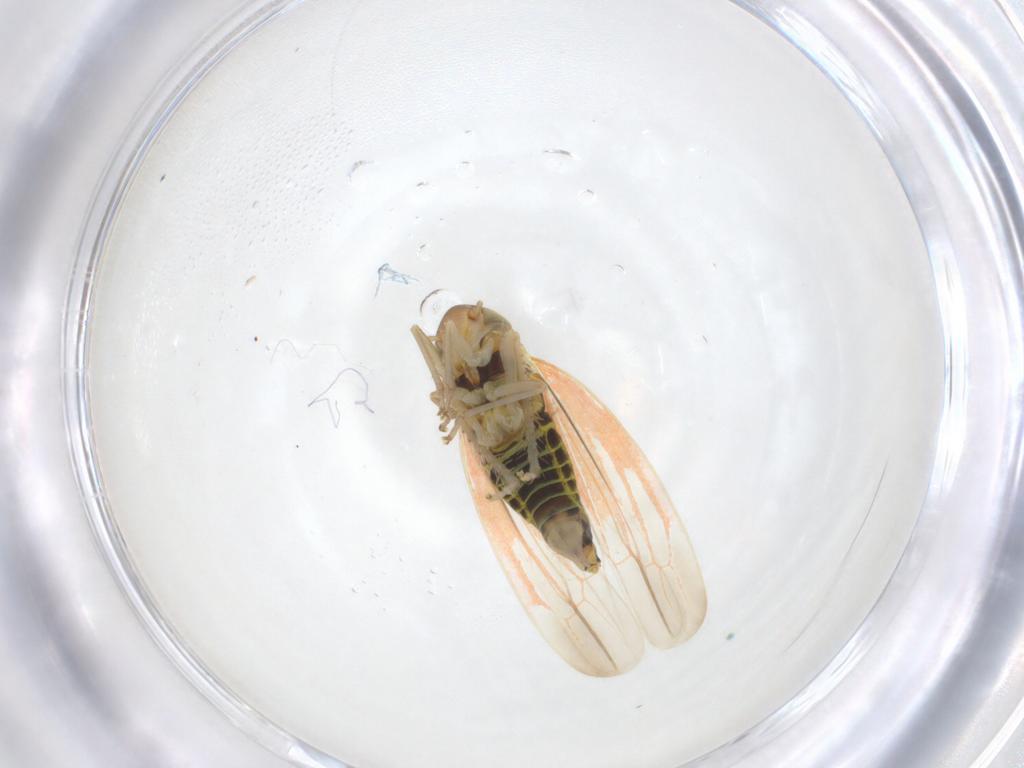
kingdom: Animalia
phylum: Arthropoda
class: Insecta
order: Hemiptera
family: Cicadellidae
